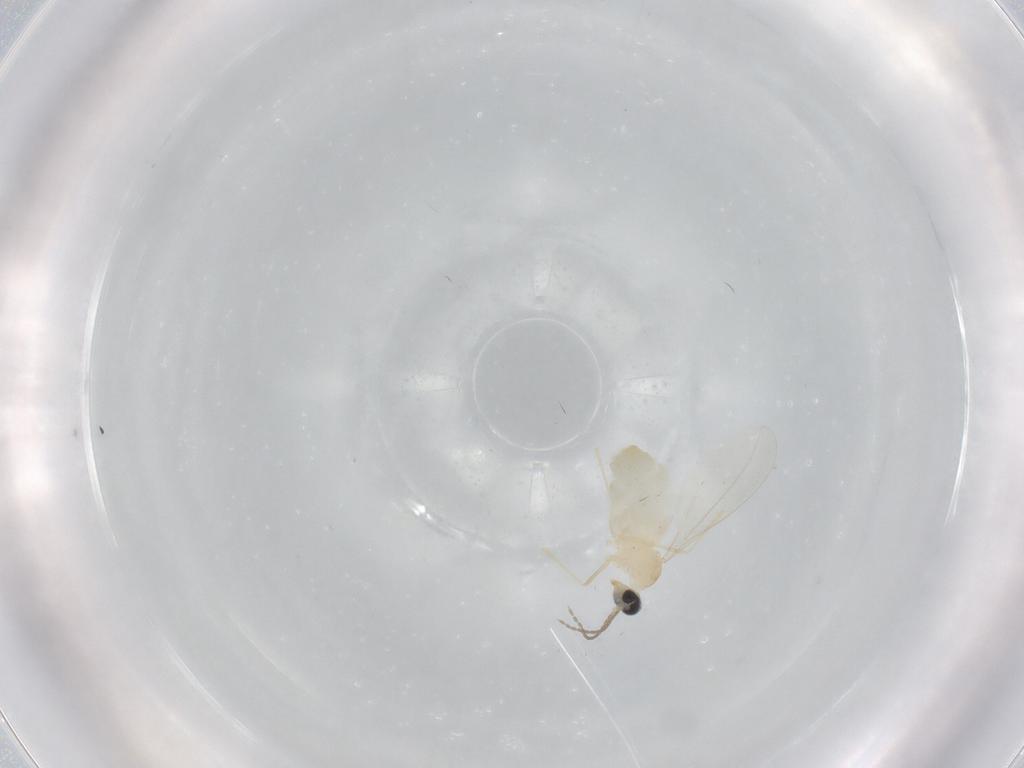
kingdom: Animalia
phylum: Arthropoda
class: Insecta
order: Diptera
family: Cecidomyiidae
